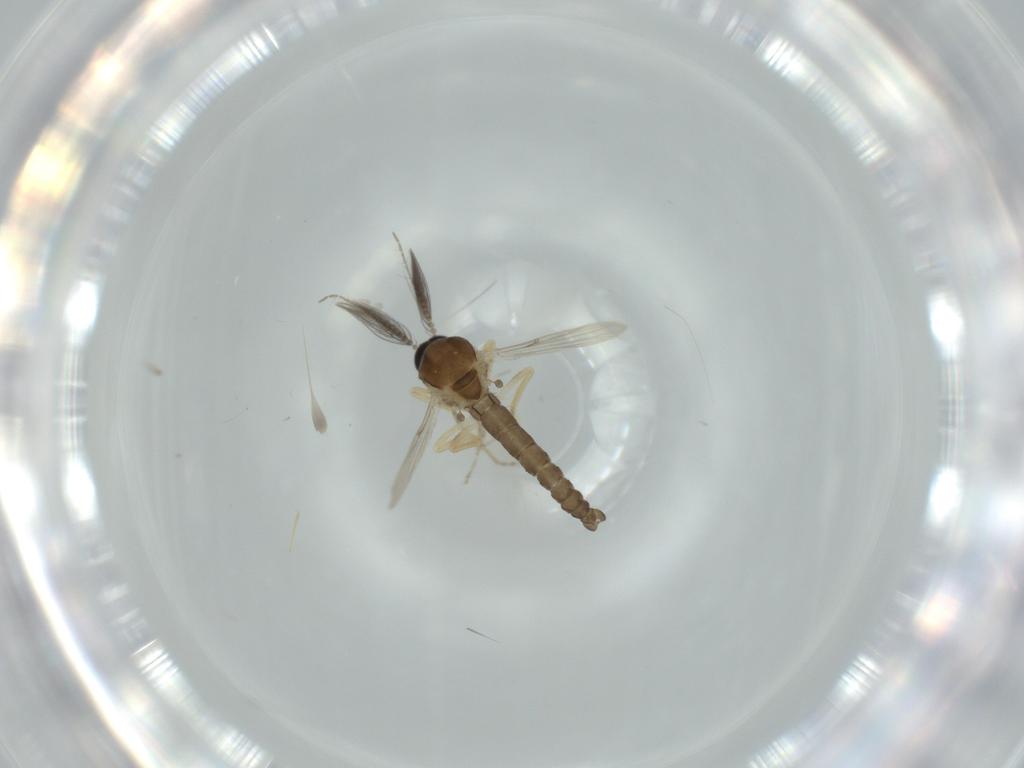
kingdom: Animalia
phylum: Arthropoda
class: Insecta
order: Diptera
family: Ceratopogonidae
